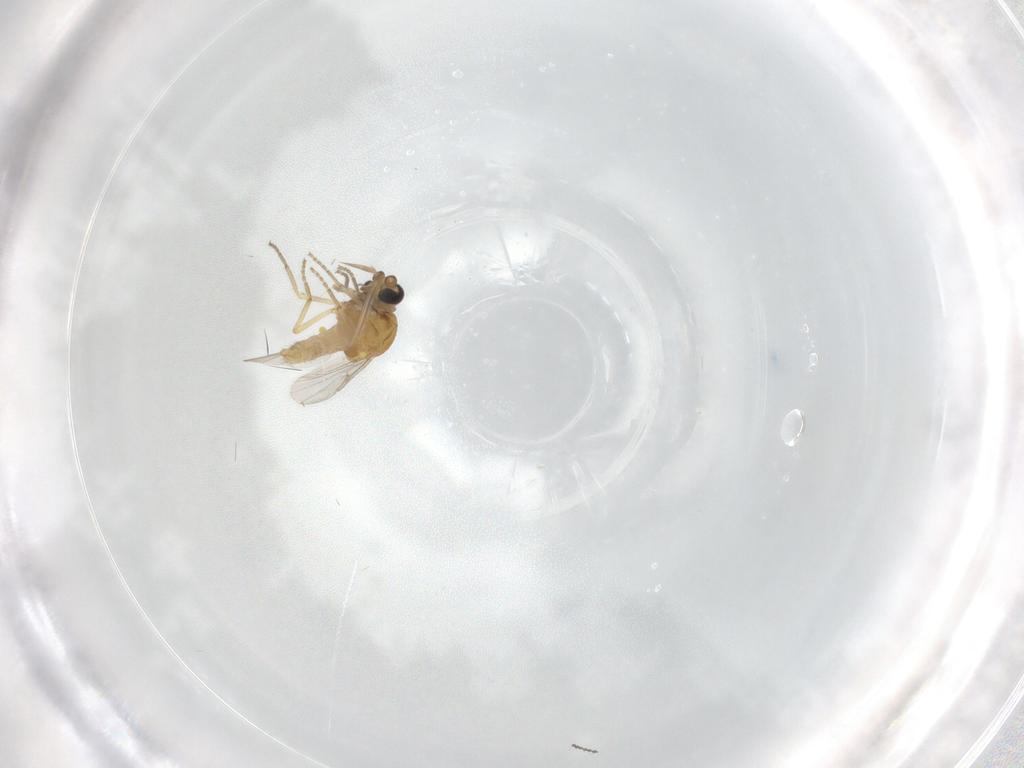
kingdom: Animalia
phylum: Arthropoda
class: Insecta
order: Diptera
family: Ceratopogonidae
